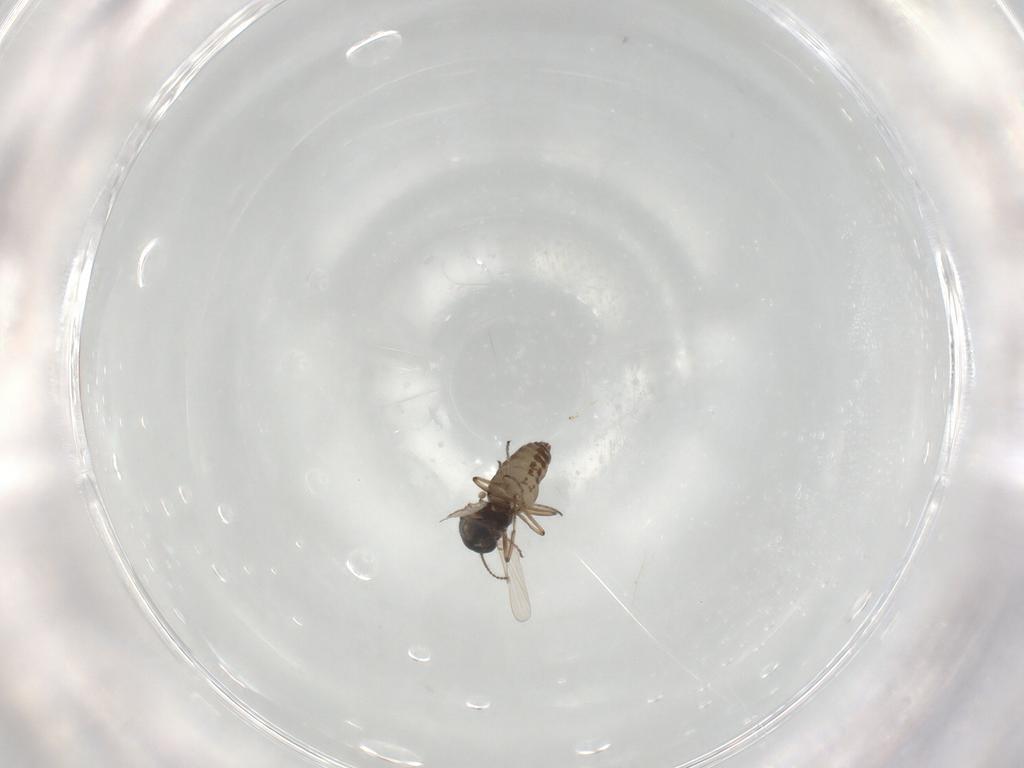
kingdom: Animalia
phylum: Arthropoda
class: Insecta
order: Diptera
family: Ceratopogonidae
